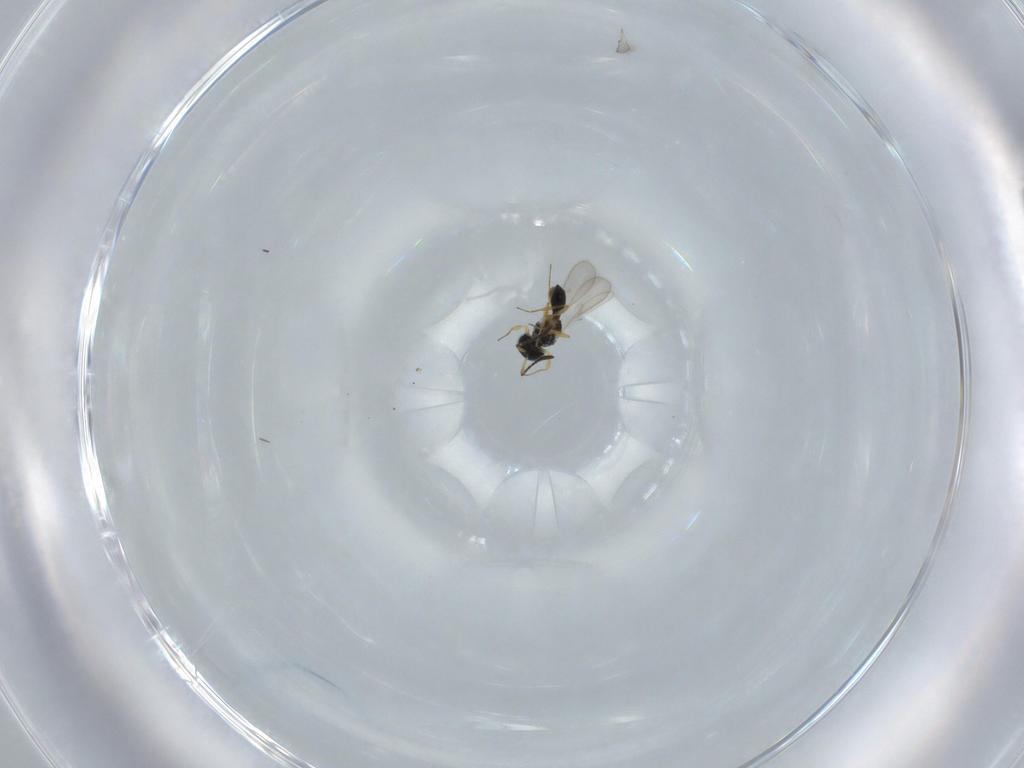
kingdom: Animalia
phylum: Arthropoda
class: Insecta
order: Hymenoptera
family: Scelionidae
